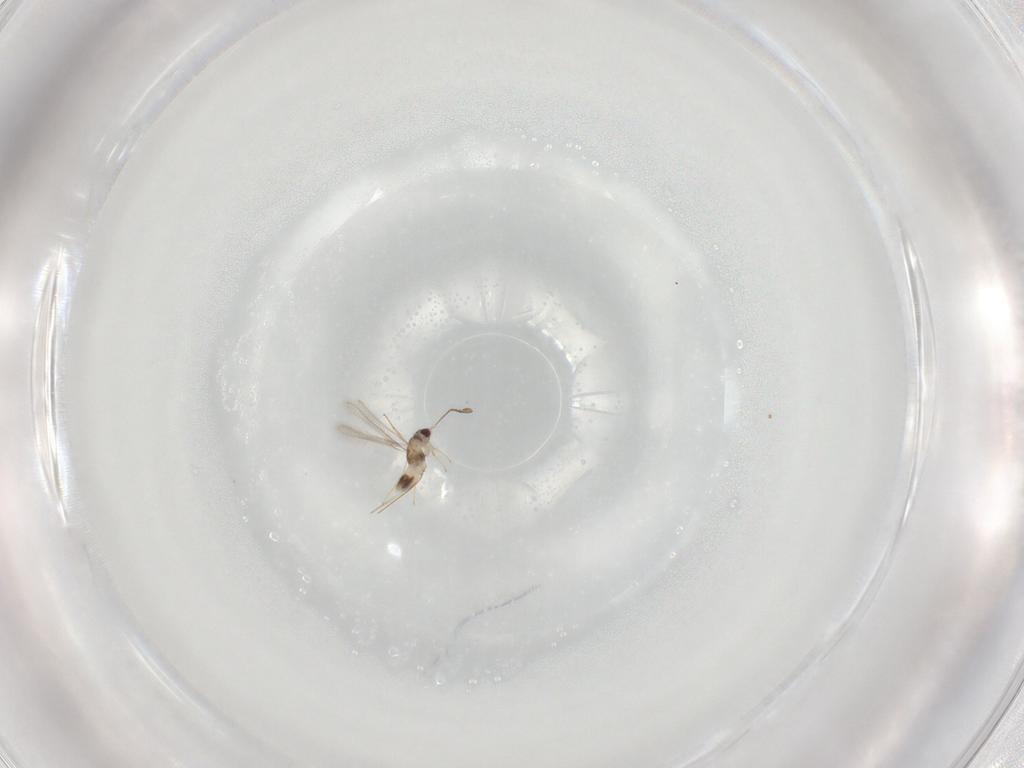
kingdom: Animalia
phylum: Arthropoda
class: Insecta
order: Hymenoptera
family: Mymaridae
